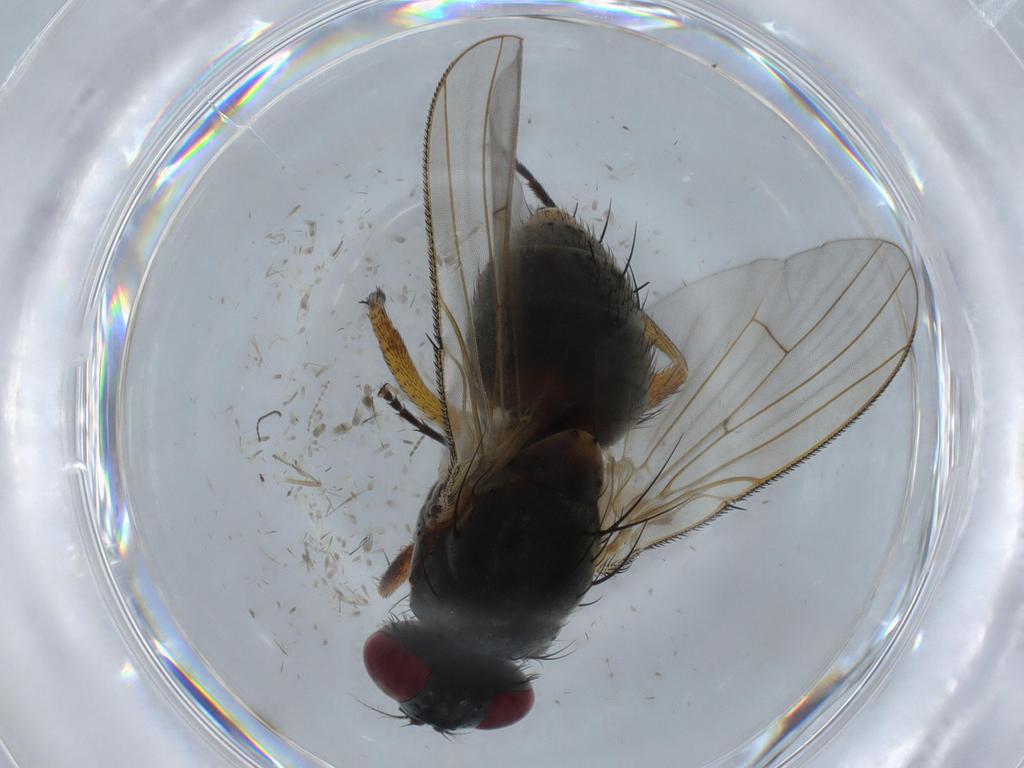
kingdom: Animalia
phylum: Arthropoda
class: Insecta
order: Diptera
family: Muscidae
